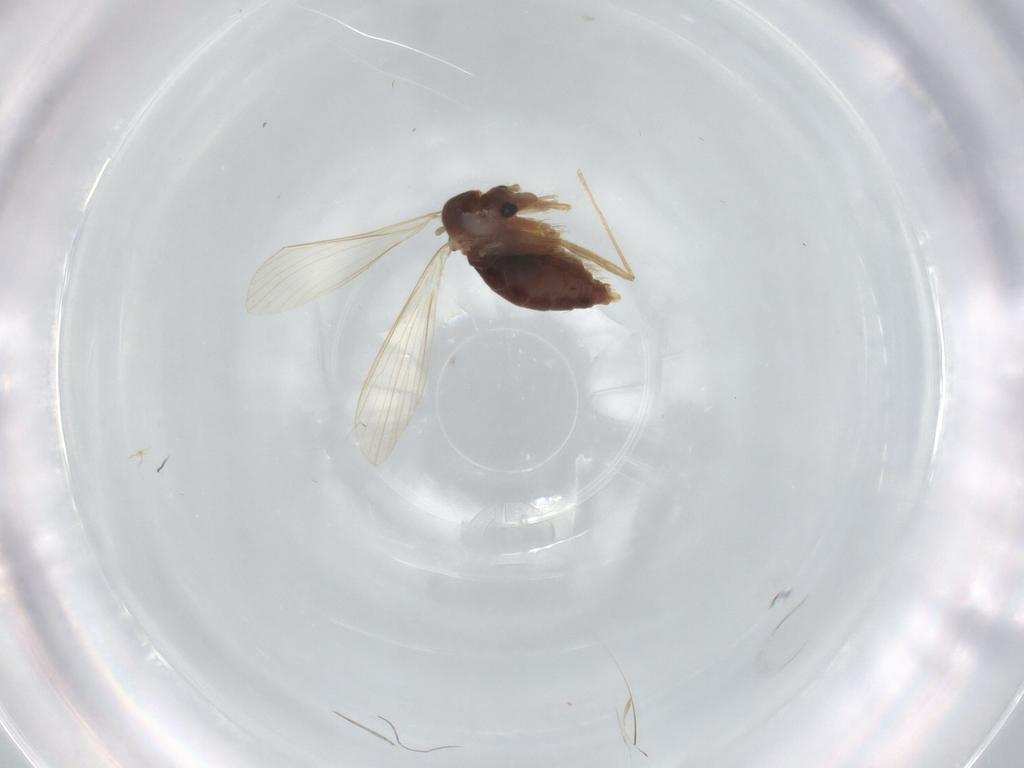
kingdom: Animalia
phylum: Arthropoda
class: Insecta
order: Diptera
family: Psychodidae
